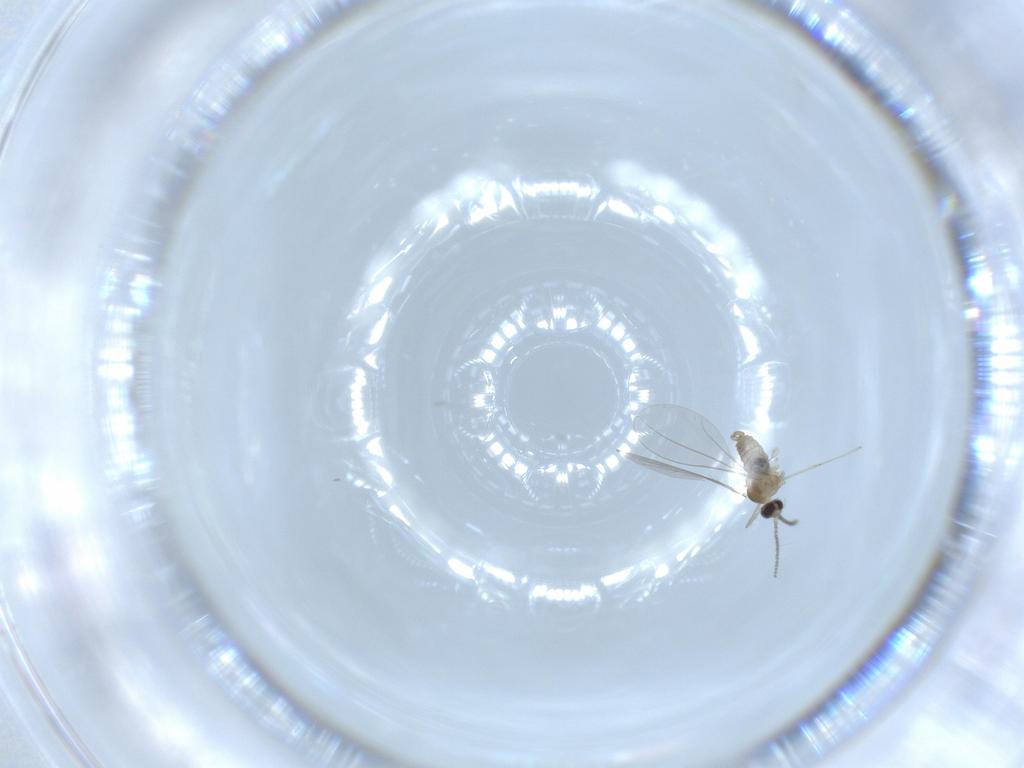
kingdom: Animalia
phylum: Arthropoda
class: Insecta
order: Diptera
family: Cecidomyiidae
